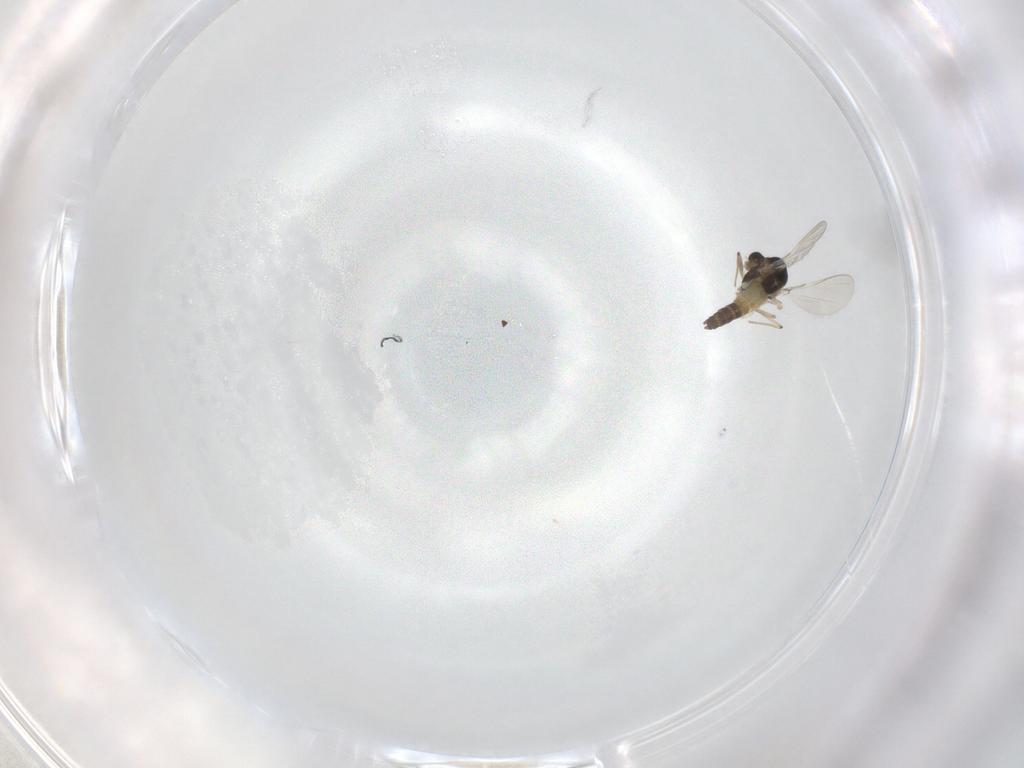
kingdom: Animalia
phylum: Arthropoda
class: Insecta
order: Diptera
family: Chironomidae
